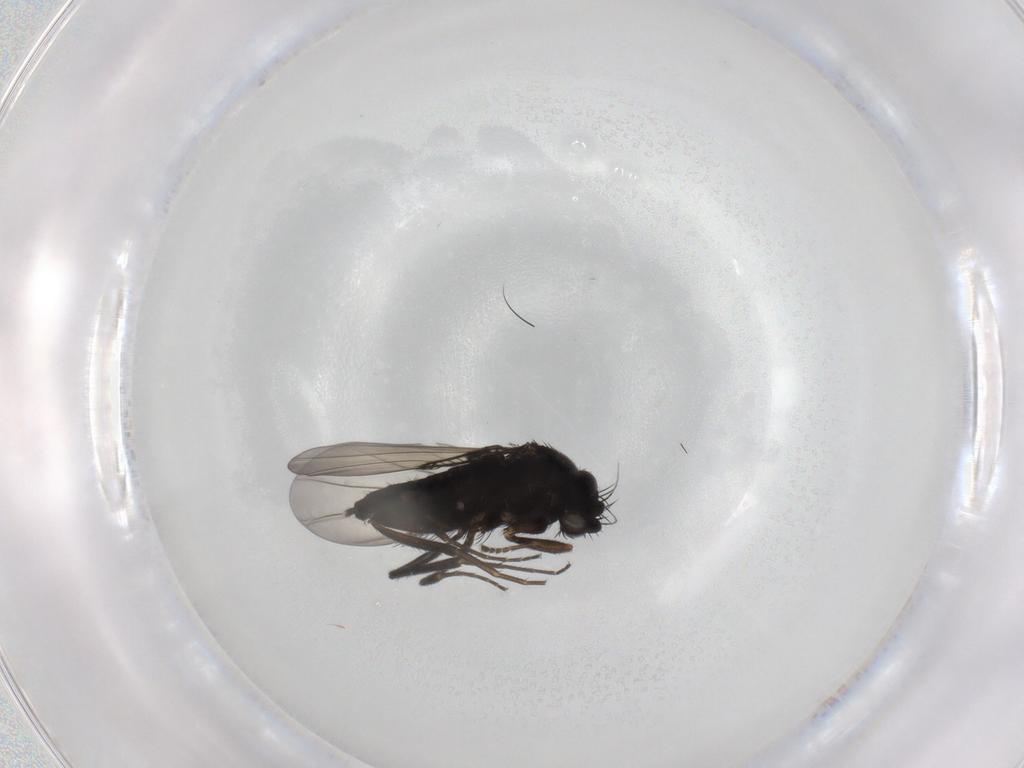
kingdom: Animalia
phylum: Arthropoda
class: Insecta
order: Diptera
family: Phoridae
